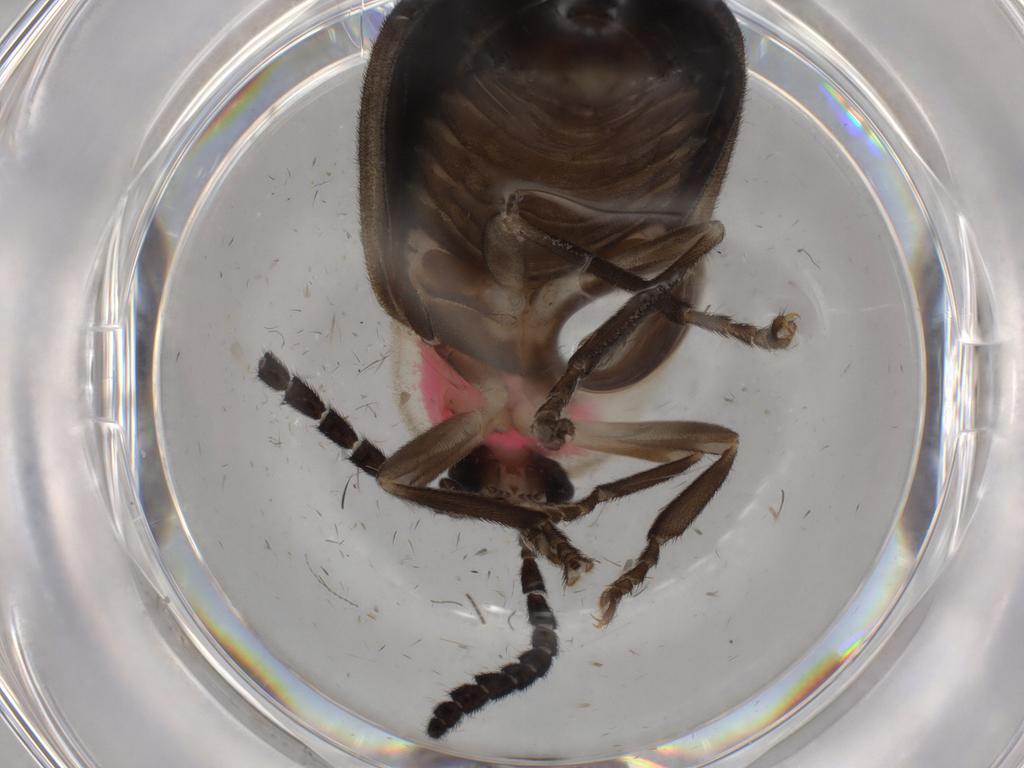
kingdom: Animalia
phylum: Arthropoda
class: Insecta
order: Coleoptera
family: Lampyridae
